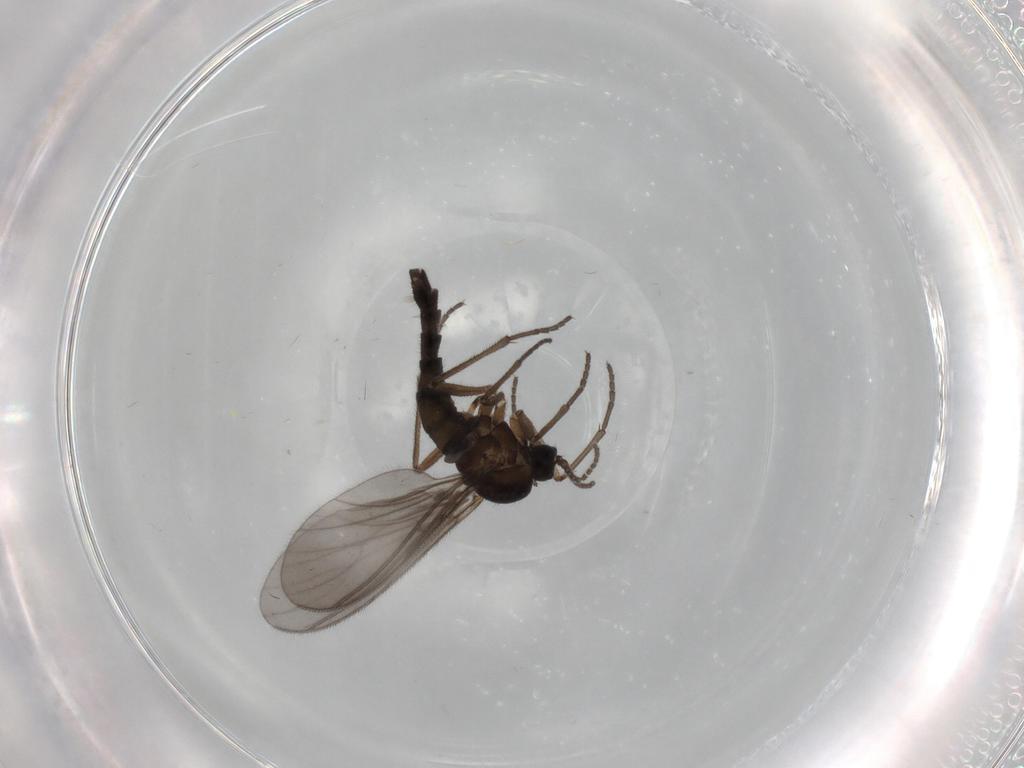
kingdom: Animalia
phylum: Arthropoda
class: Insecta
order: Diptera
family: Sciaridae
